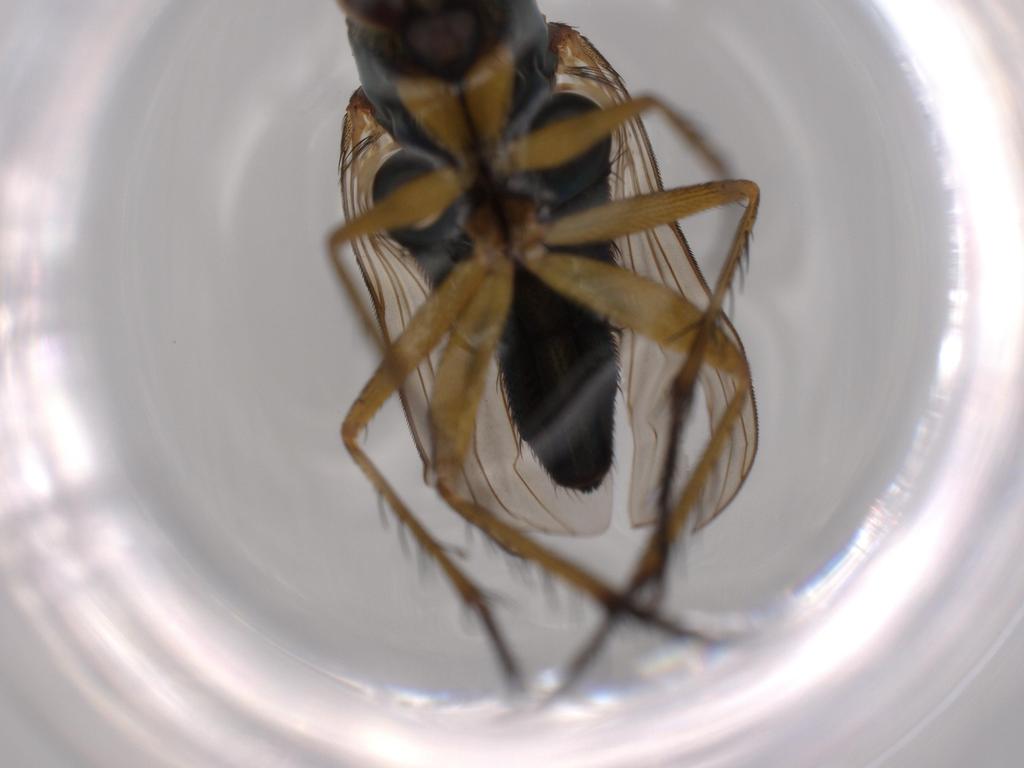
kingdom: Animalia
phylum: Arthropoda
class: Insecta
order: Diptera
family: Dolichopodidae
